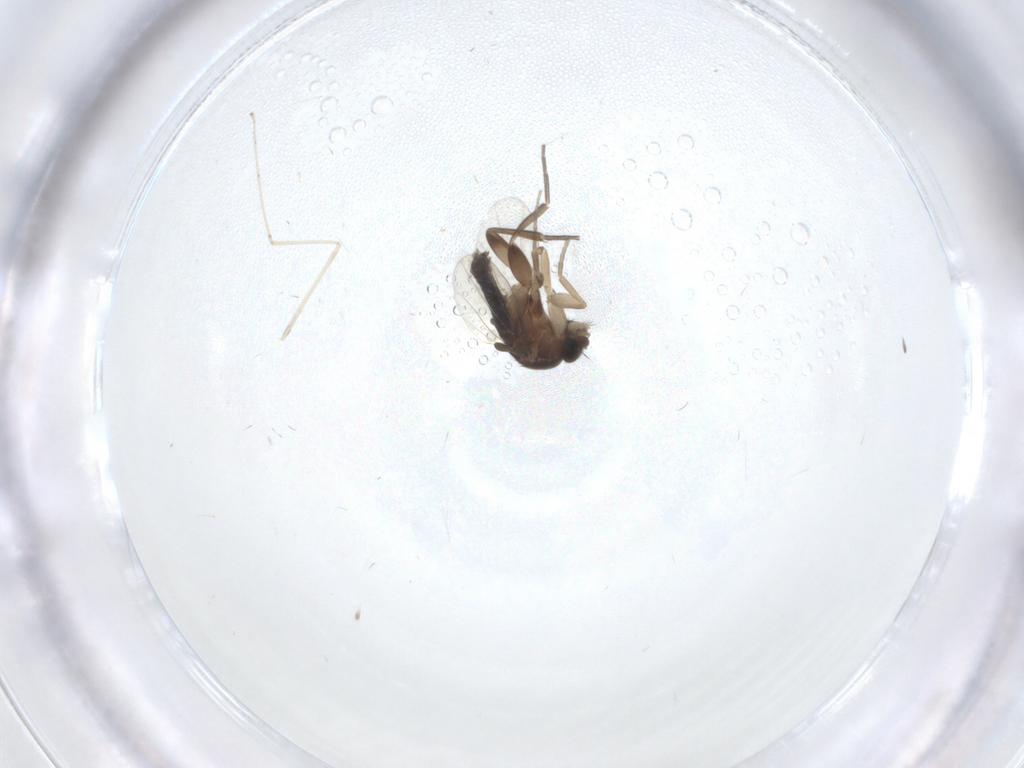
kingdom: Animalia
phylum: Arthropoda
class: Insecta
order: Diptera
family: Phoridae
